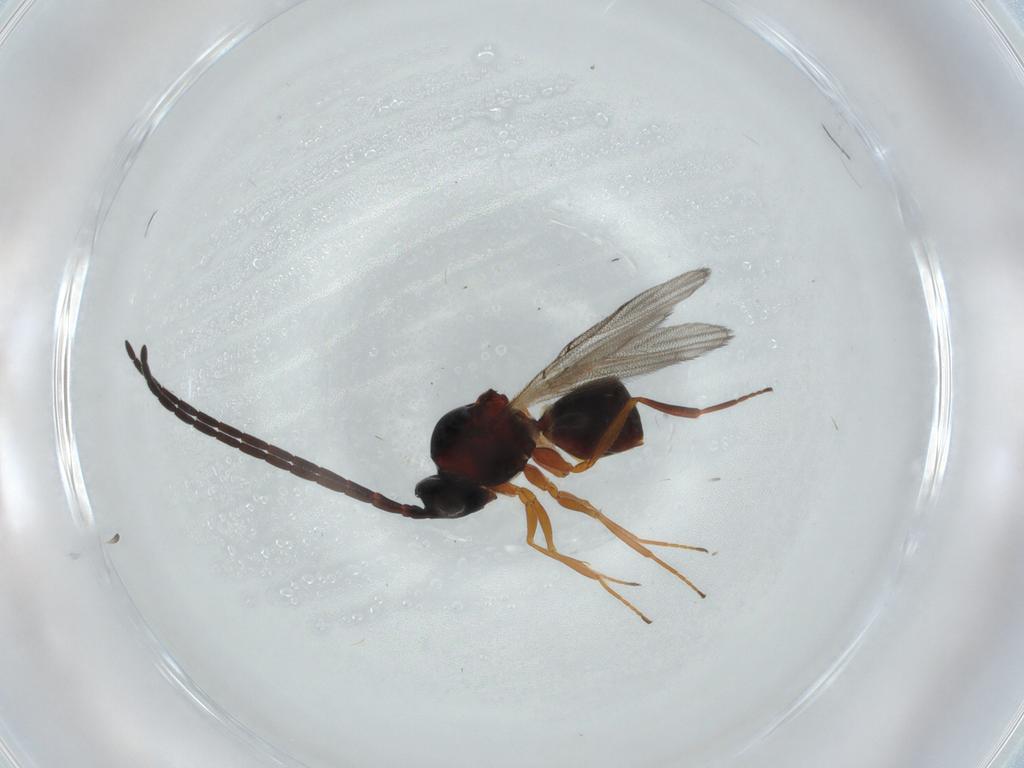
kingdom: Animalia
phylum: Arthropoda
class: Insecta
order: Hymenoptera
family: Figitidae
